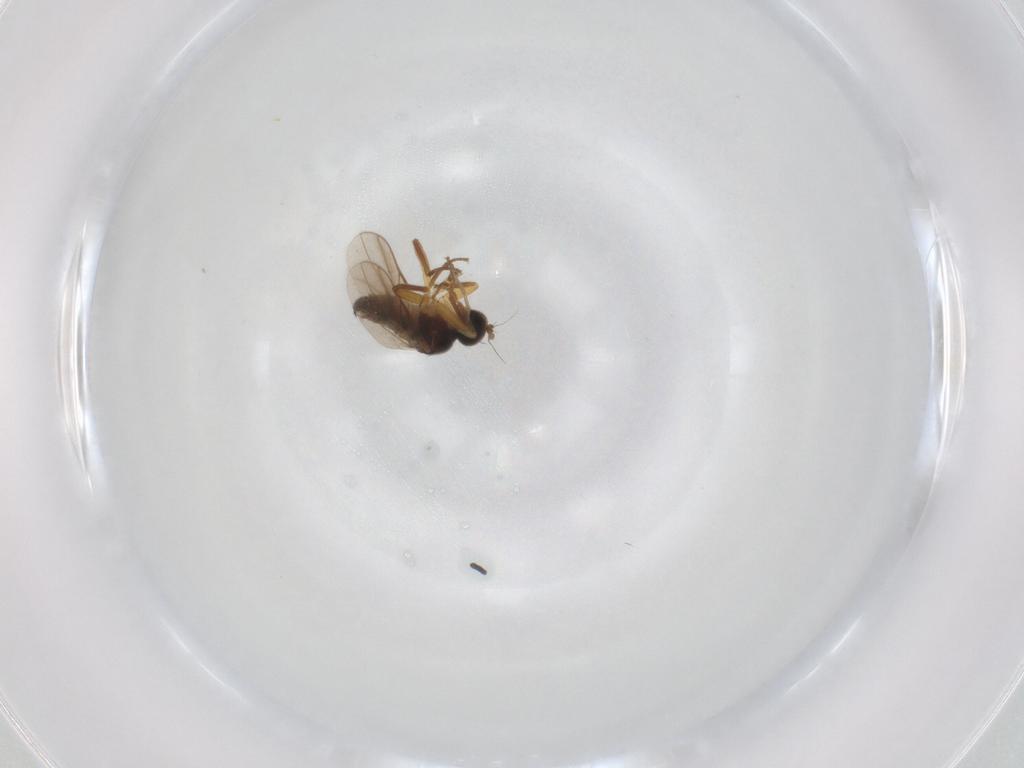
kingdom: Animalia
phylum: Arthropoda
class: Insecta
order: Diptera
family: Hybotidae
